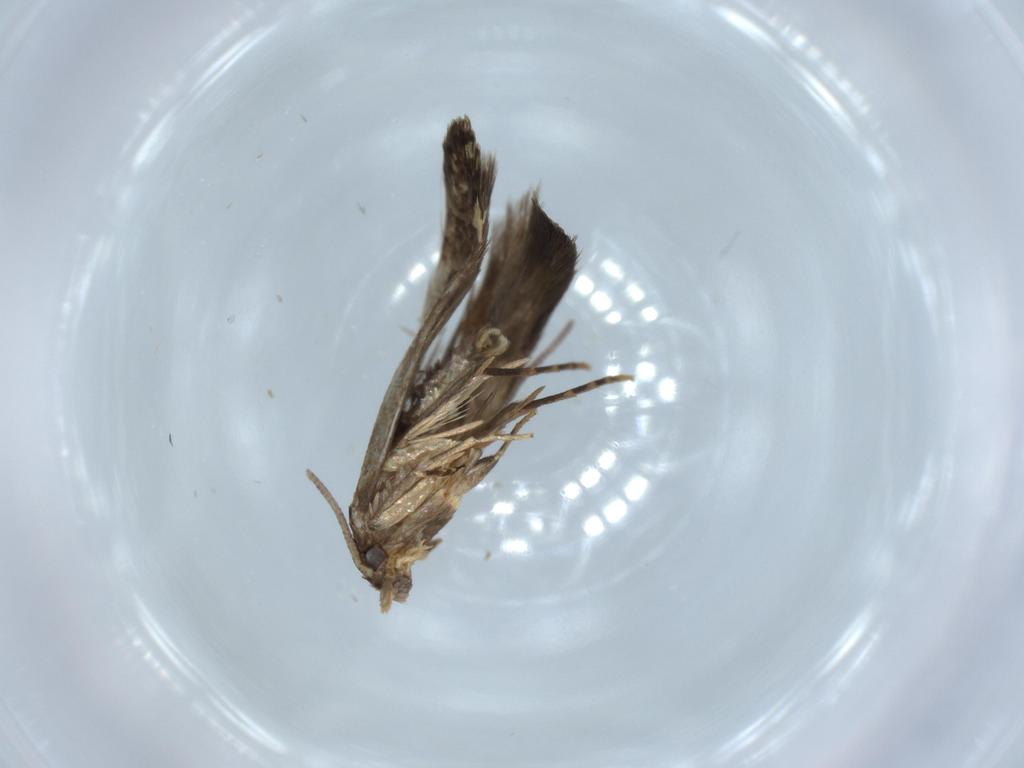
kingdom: Animalia
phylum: Arthropoda
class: Insecta
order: Lepidoptera
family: Tineidae
